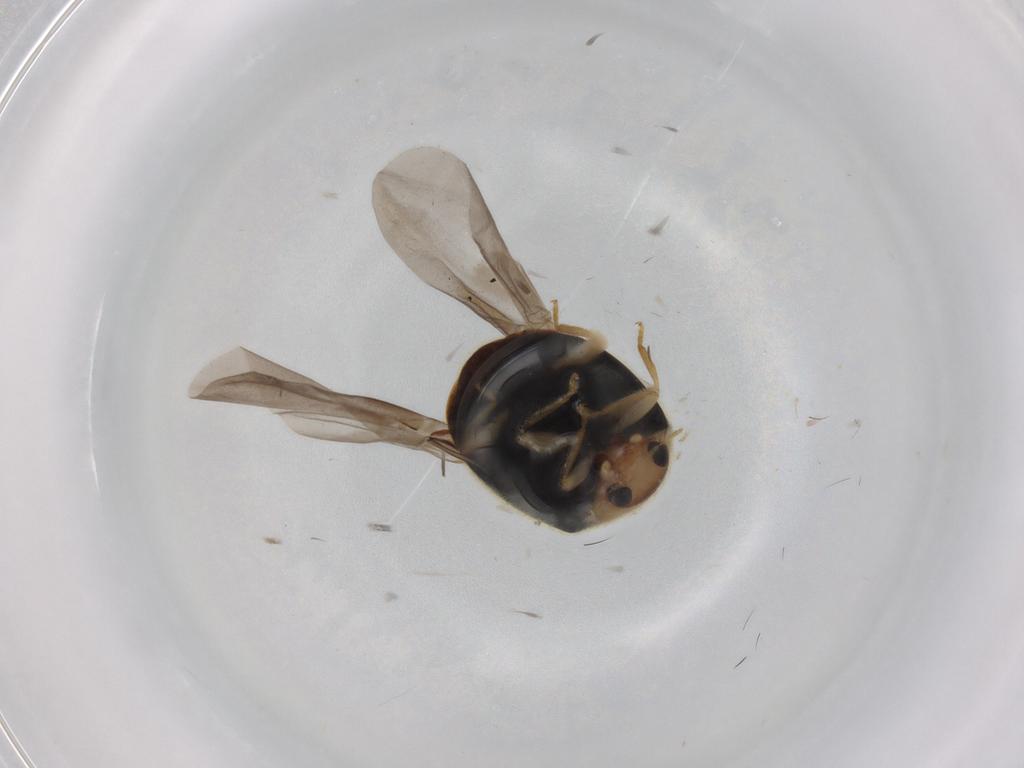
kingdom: Animalia
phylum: Arthropoda
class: Insecta
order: Coleoptera
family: Coccinellidae
